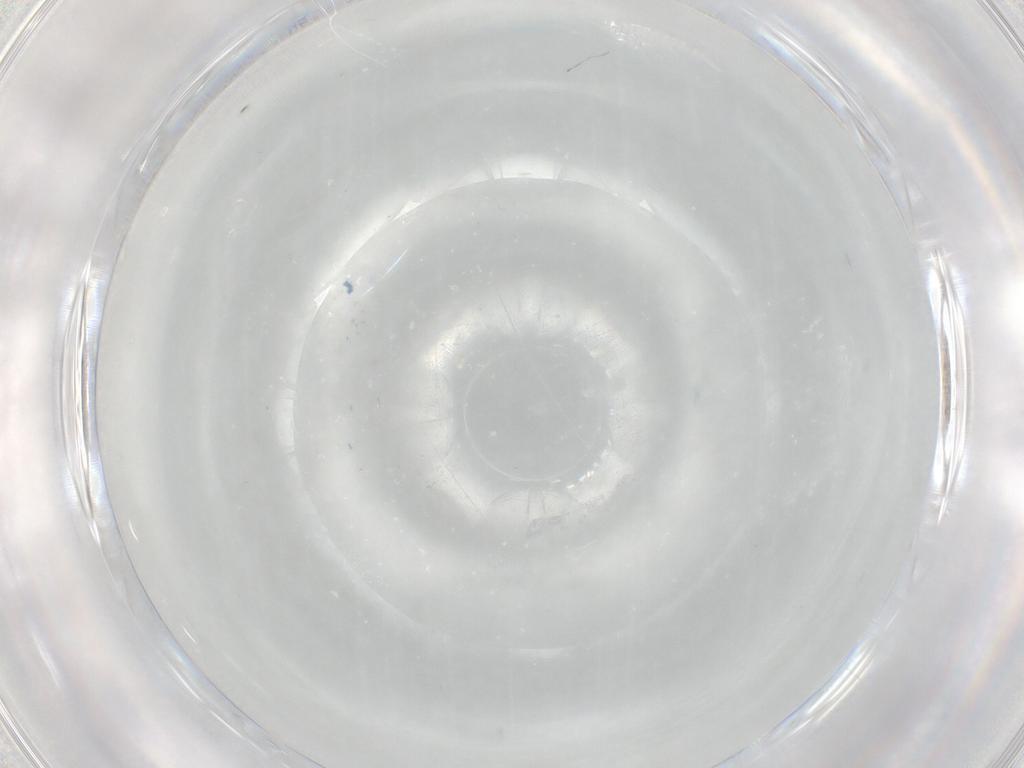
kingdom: Animalia
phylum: Arthropoda
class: Insecta
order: Diptera
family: Cecidomyiidae
